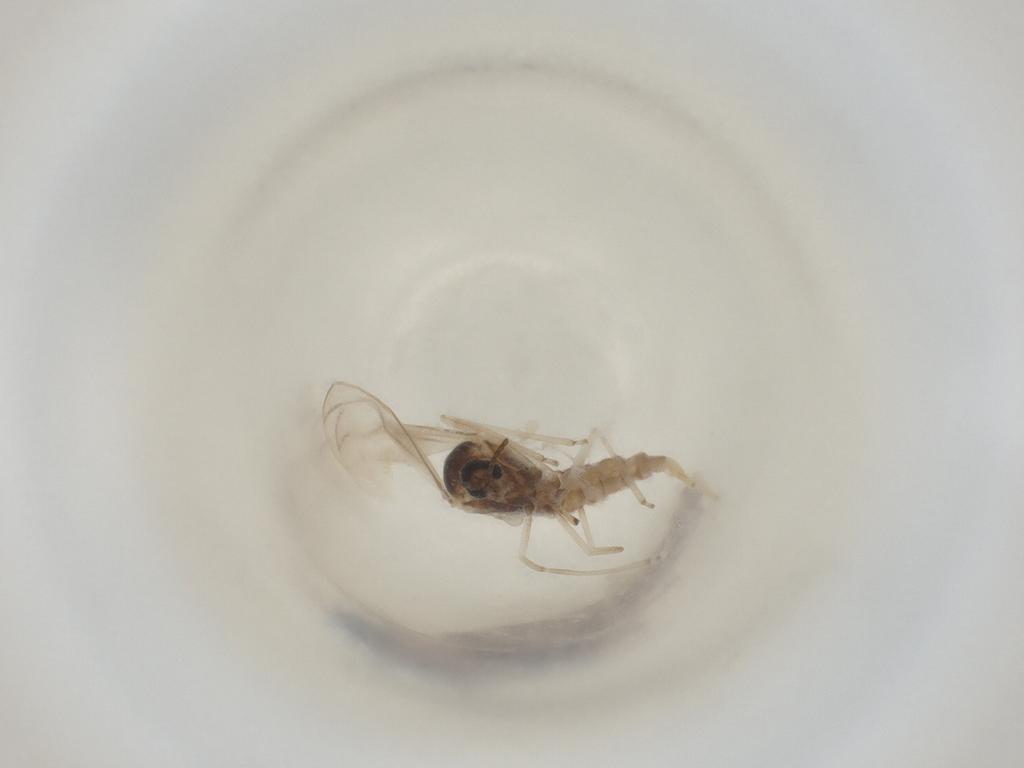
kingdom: Animalia
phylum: Arthropoda
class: Insecta
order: Diptera
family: Cecidomyiidae
